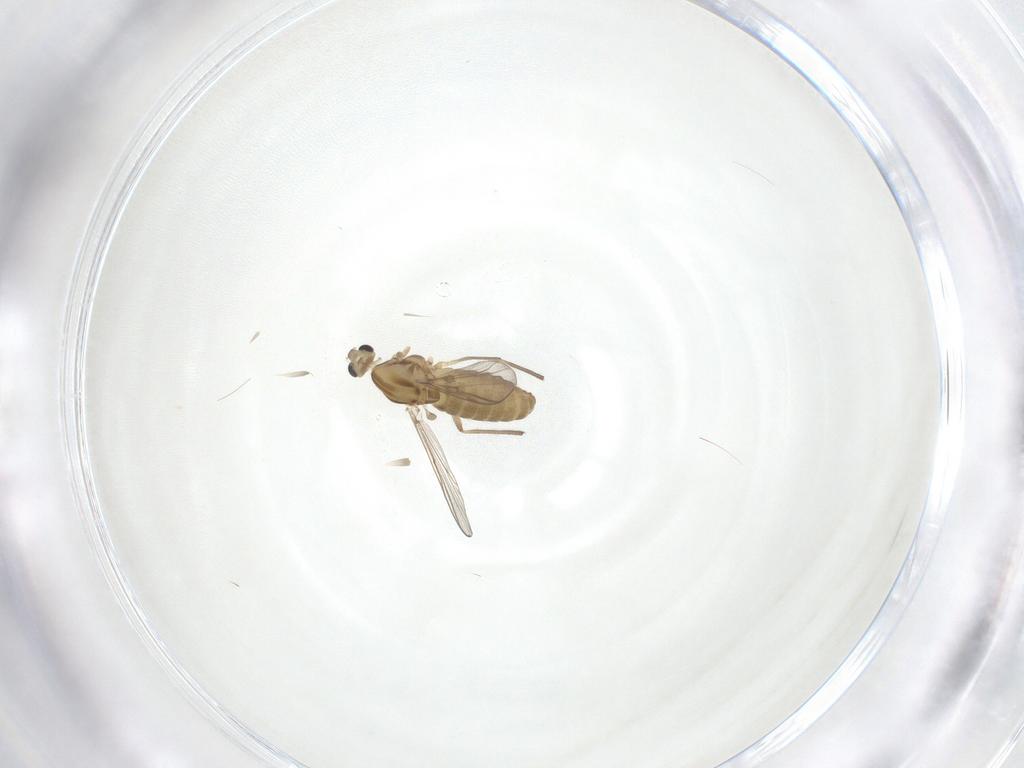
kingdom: Animalia
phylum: Arthropoda
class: Insecta
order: Diptera
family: Chironomidae
